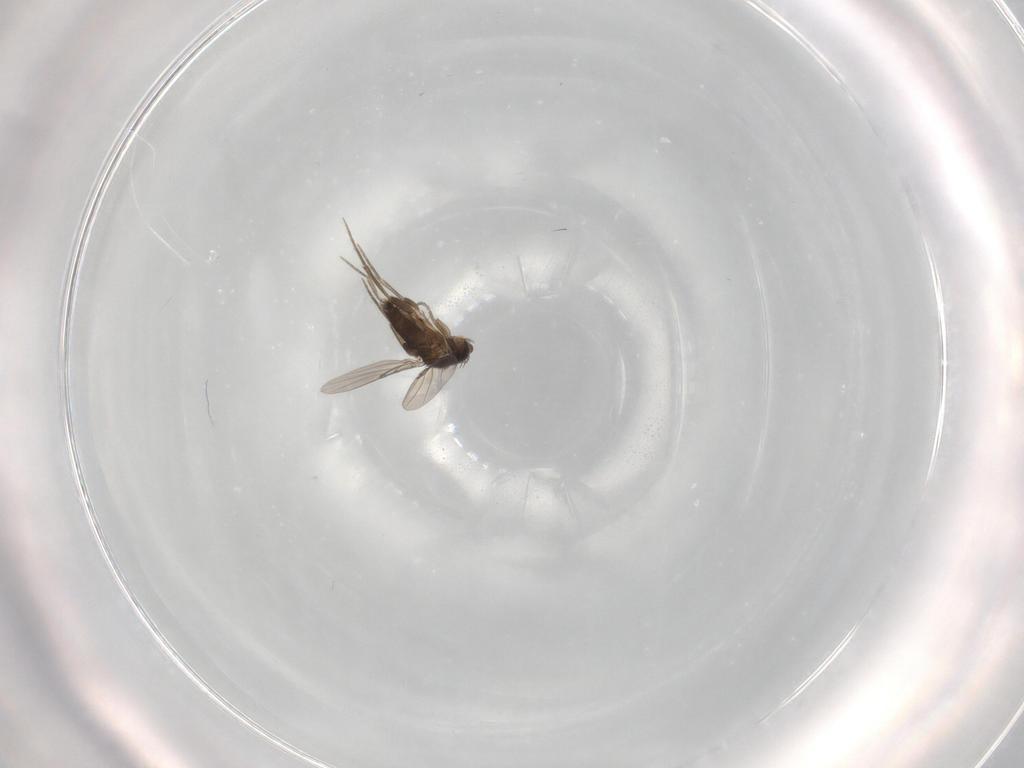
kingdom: Animalia
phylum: Arthropoda
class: Insecta
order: Diptera
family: Phoridae
